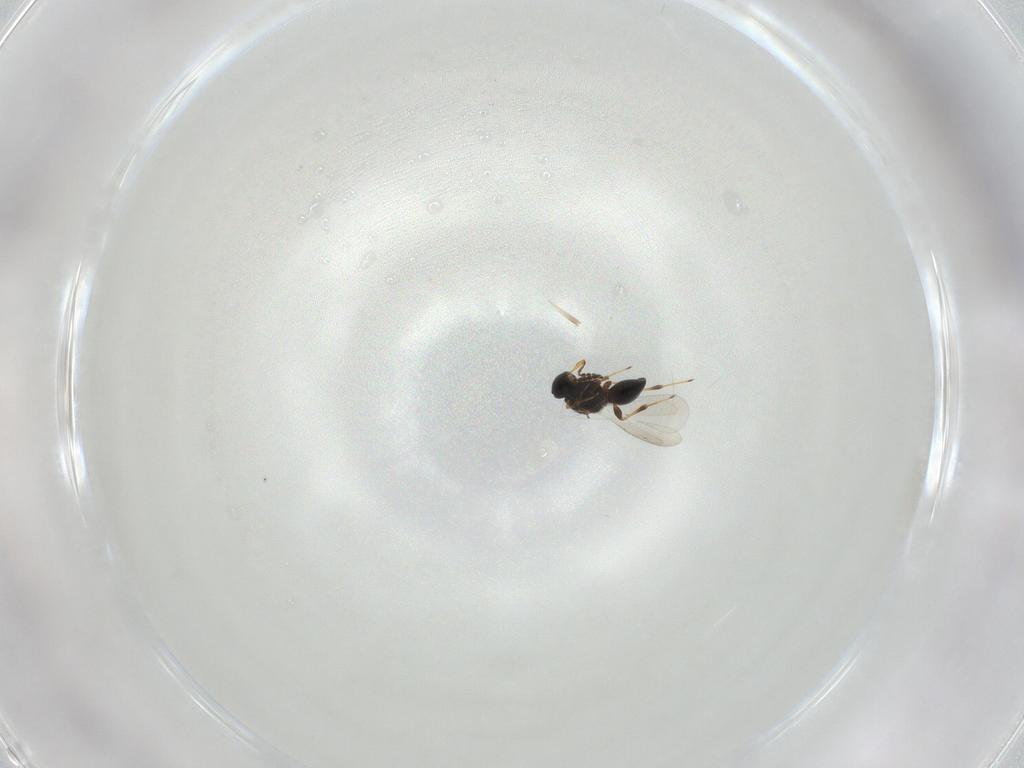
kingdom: Animalia
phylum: Arthropoda
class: Insecta
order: Hymenoptera
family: Platygastridae
